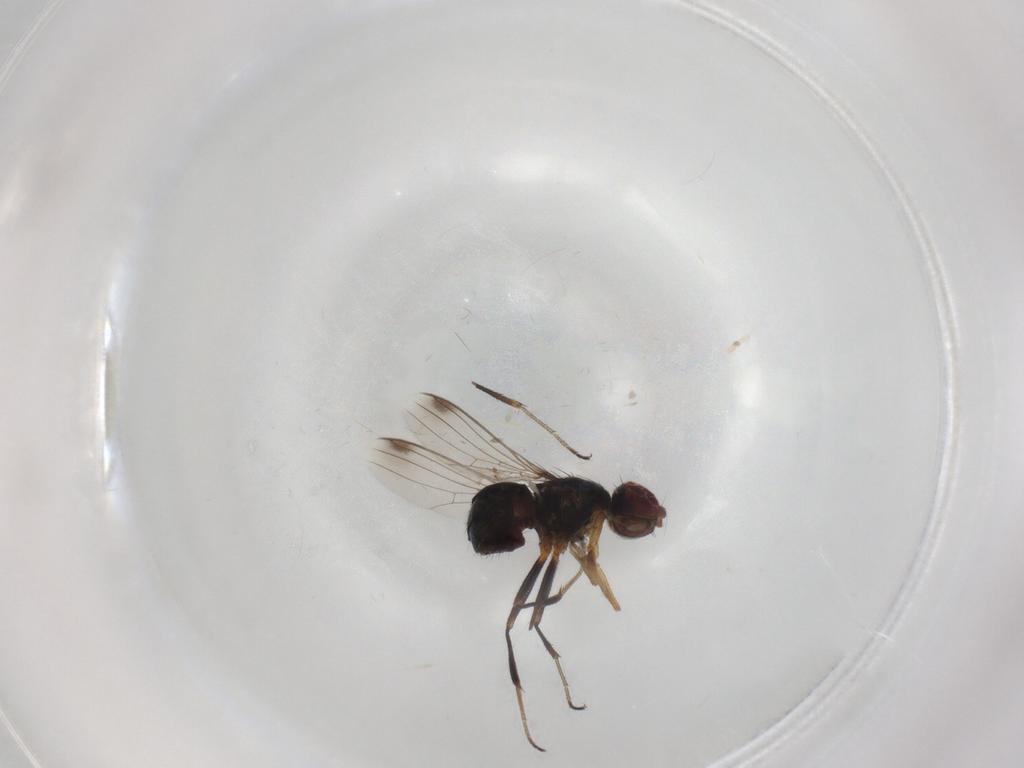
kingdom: Animalia
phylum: Arthropoda
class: Insecta
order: Diptera
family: Sepsidae
